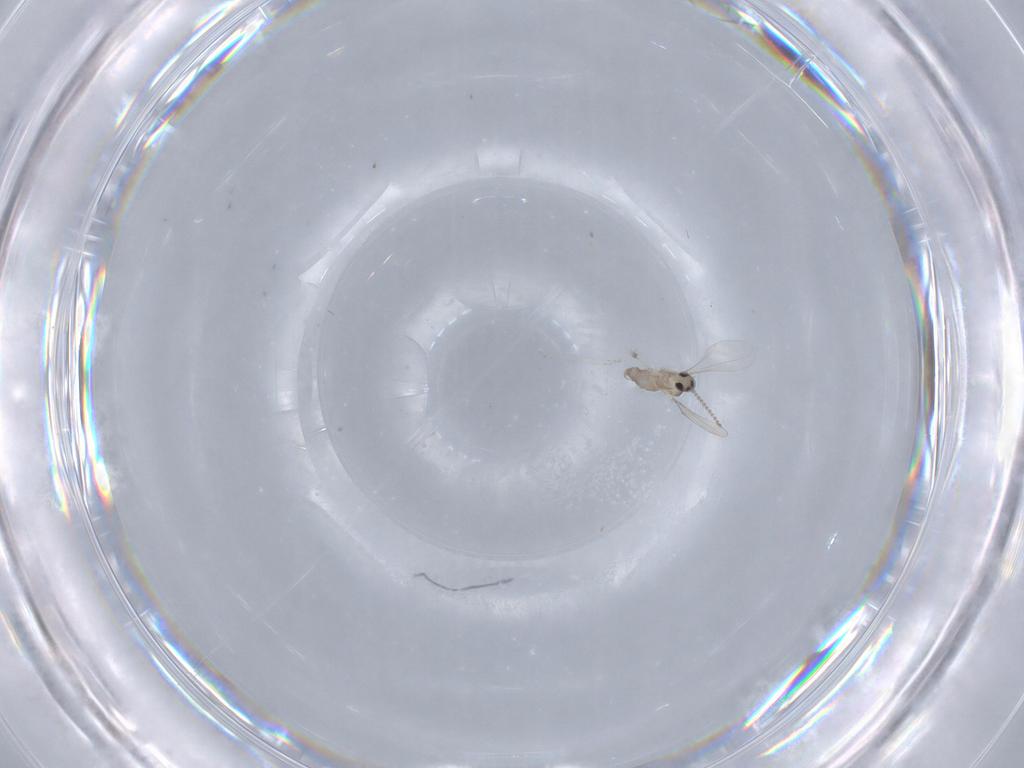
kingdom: Animalia
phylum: Arthropoda
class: Insecta
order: Diptera
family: Cecidomyiidae
